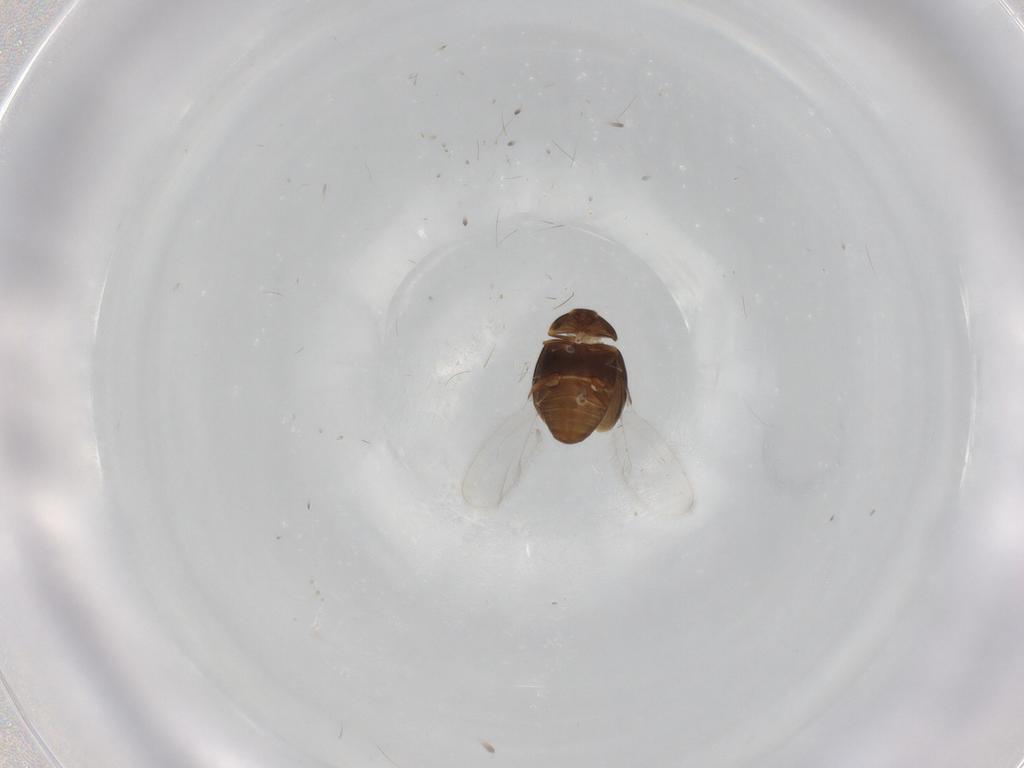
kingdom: Animalia
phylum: Arthropoda
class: Insecta
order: Coleoptera
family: Corylophidae
